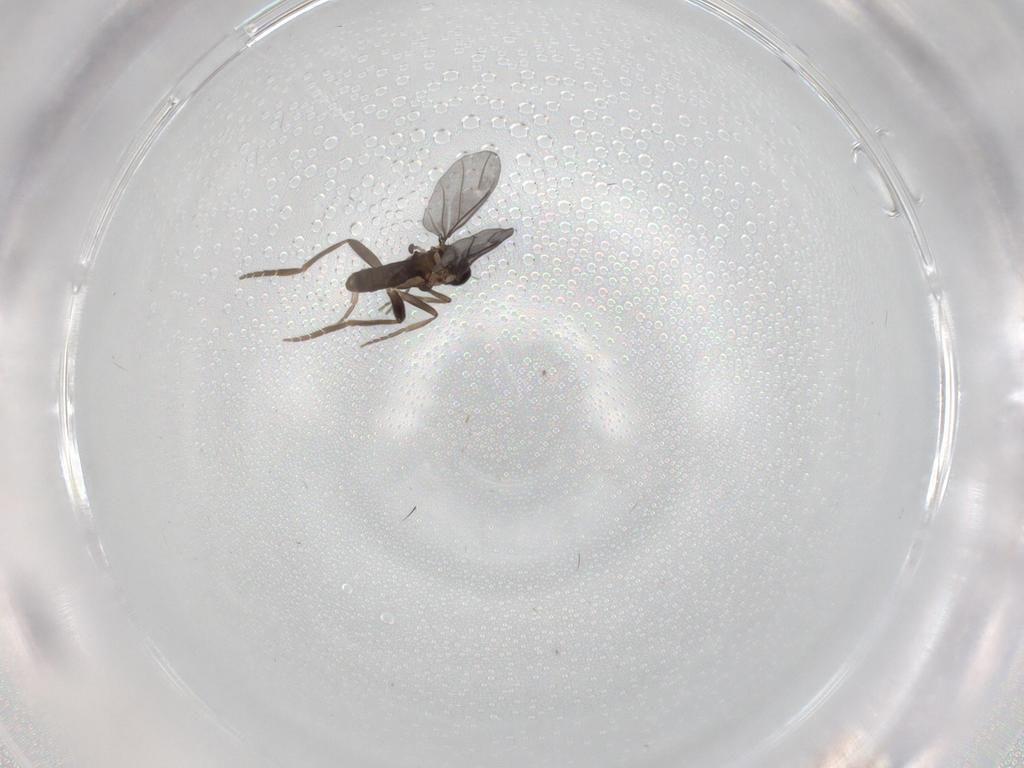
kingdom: Animalia
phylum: Arthropoda
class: Insecta
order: Diptera
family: Phoridae
